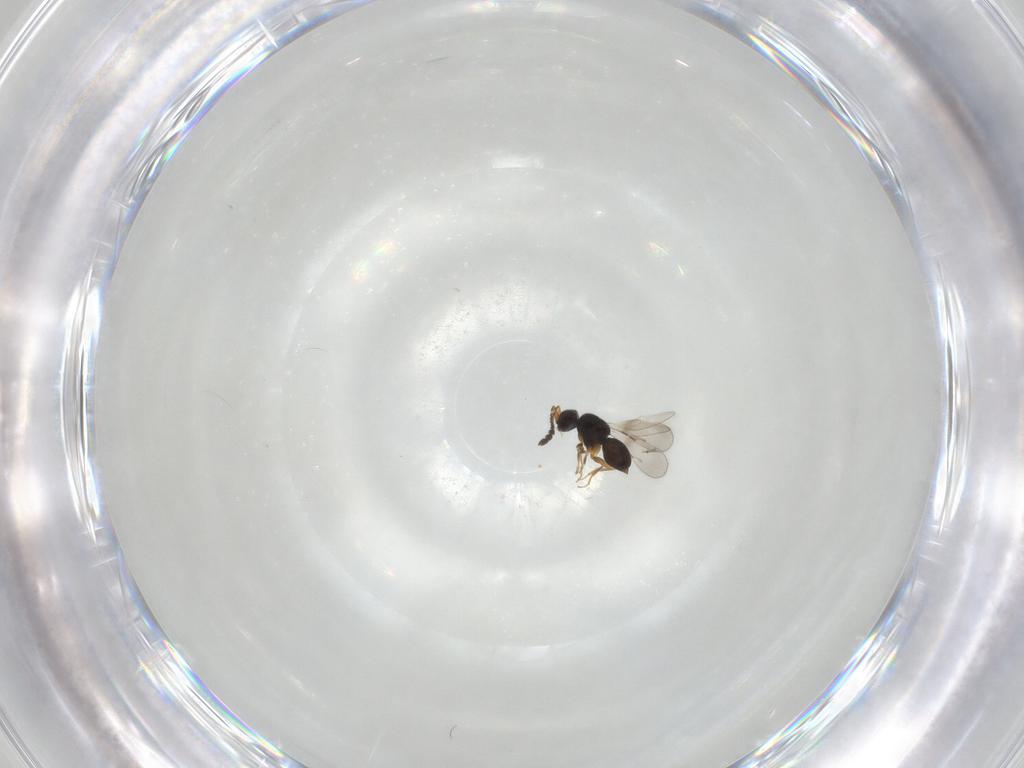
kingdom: Animalia
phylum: Arthropoda
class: Insecta
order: Hymenoptera
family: Ceraphronidae
